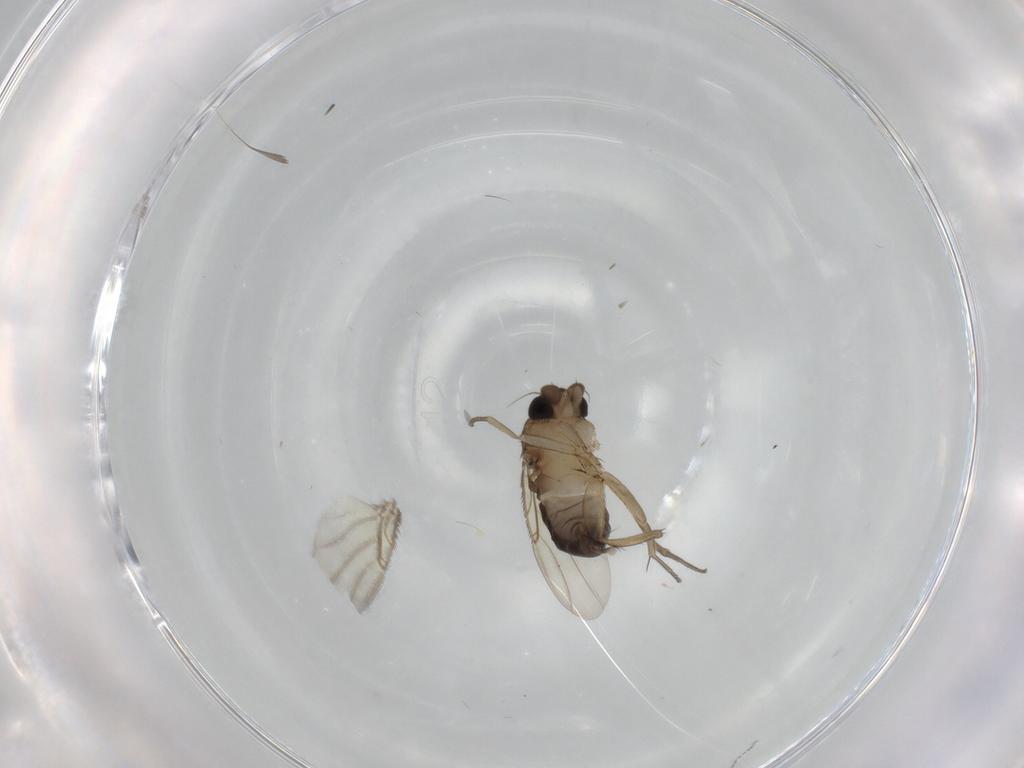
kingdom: Animalia
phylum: Arthropoda
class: Insecta
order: Diptera
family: Phoridae
